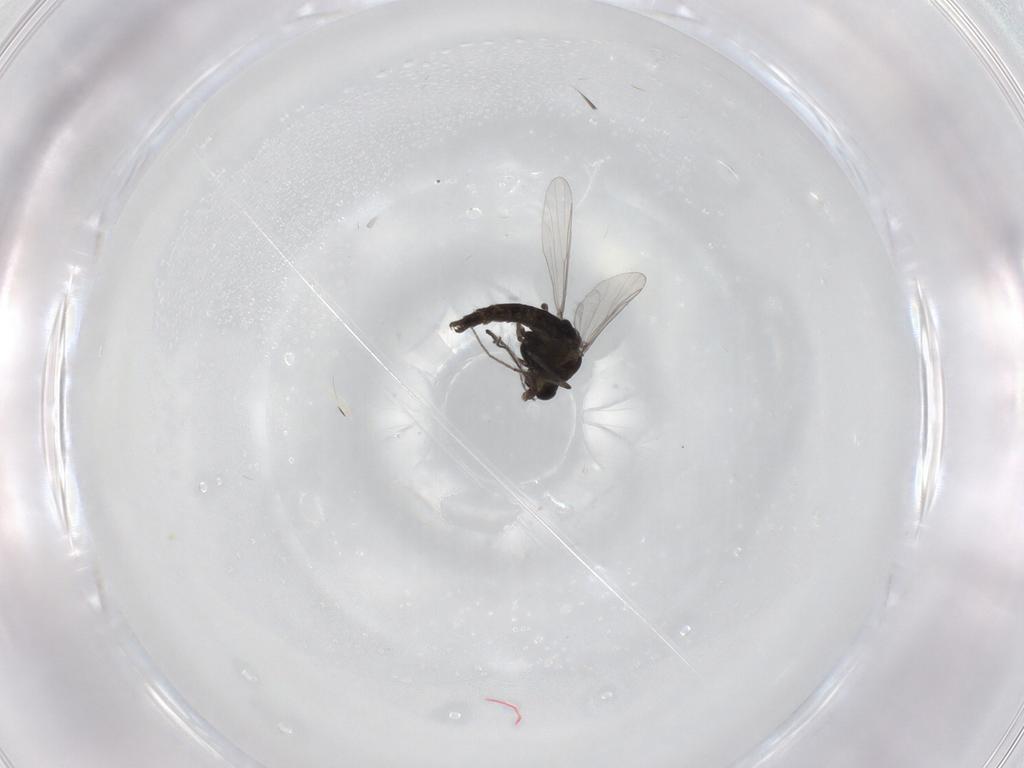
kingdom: Animalia
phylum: Arthropoda
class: Insecta
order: Diptera
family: Chironomidae
